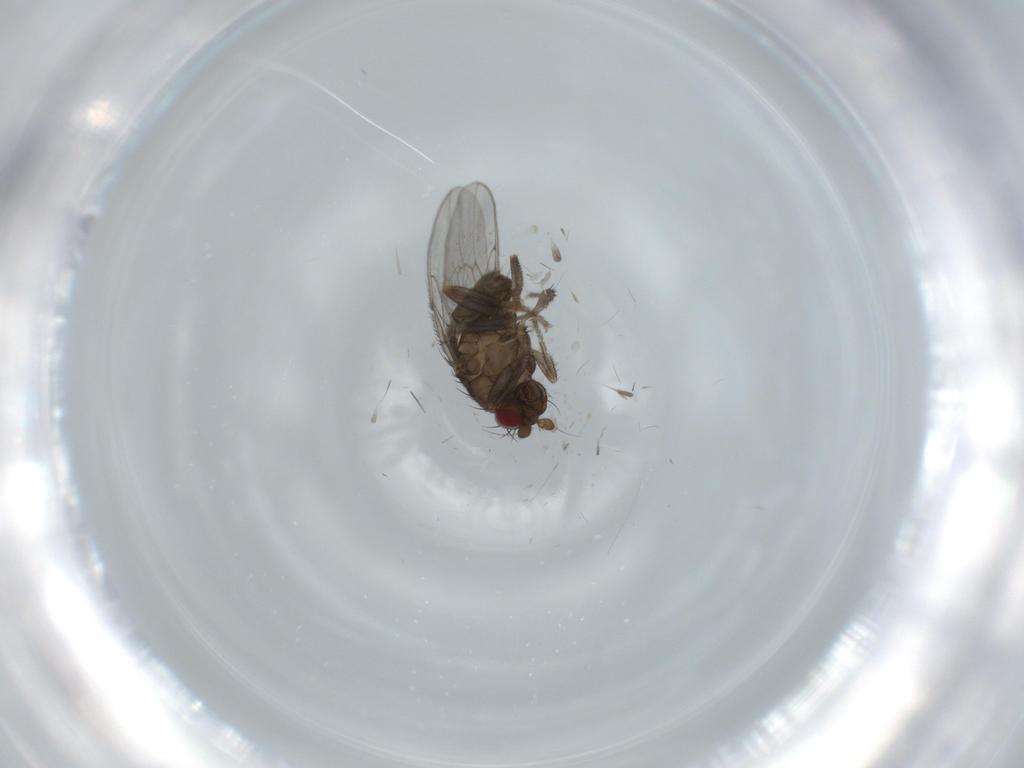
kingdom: Animalia
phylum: Arthropoda
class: Insecta
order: Diptera
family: Sphaeroceridae
